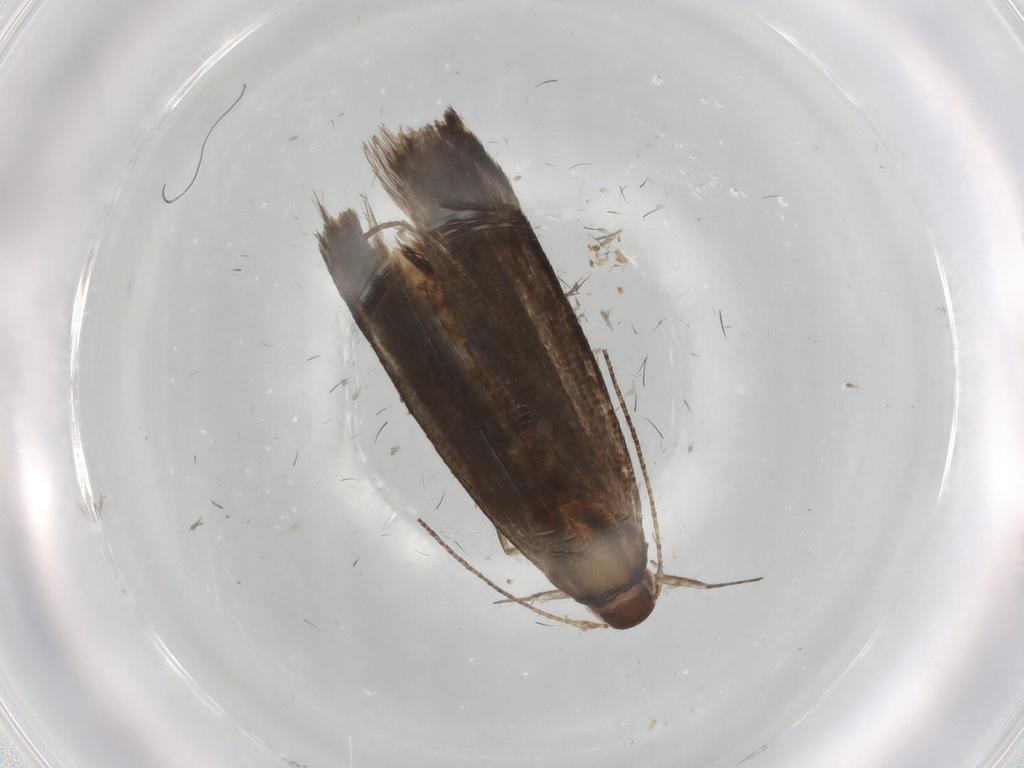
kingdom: Animalia
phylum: Arthropoda
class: Insecta
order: Lepidoptera
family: Gelechiidae
